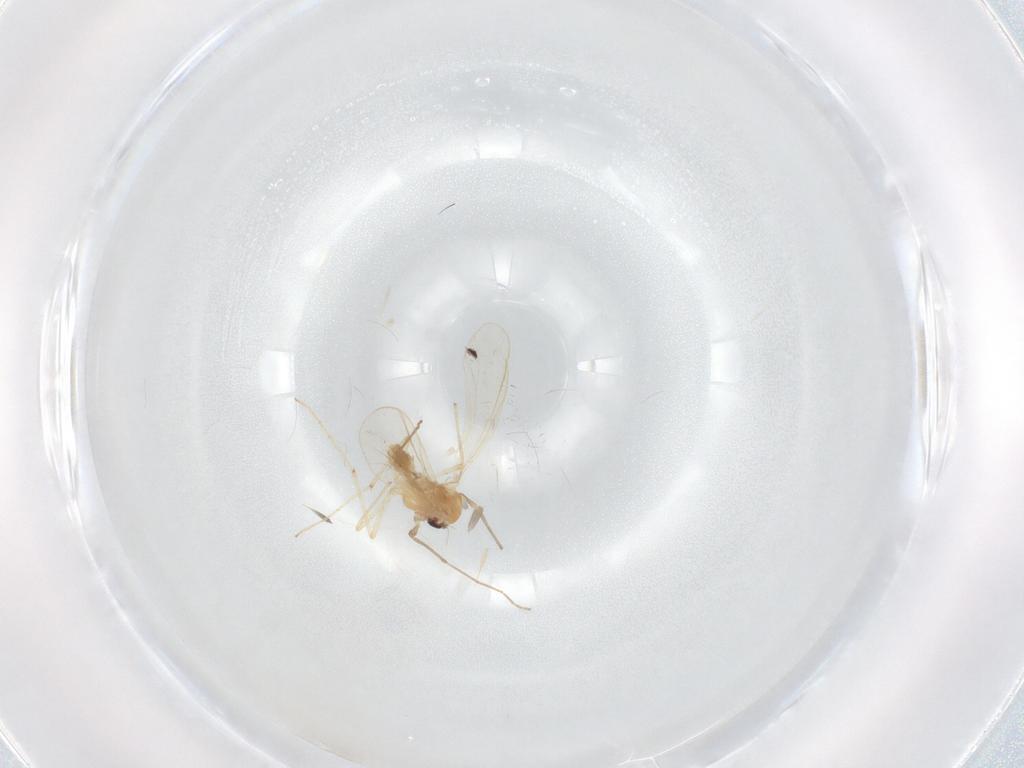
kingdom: Animalia
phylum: Arthropoda
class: Insecta
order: Diptera
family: Chironomidae
